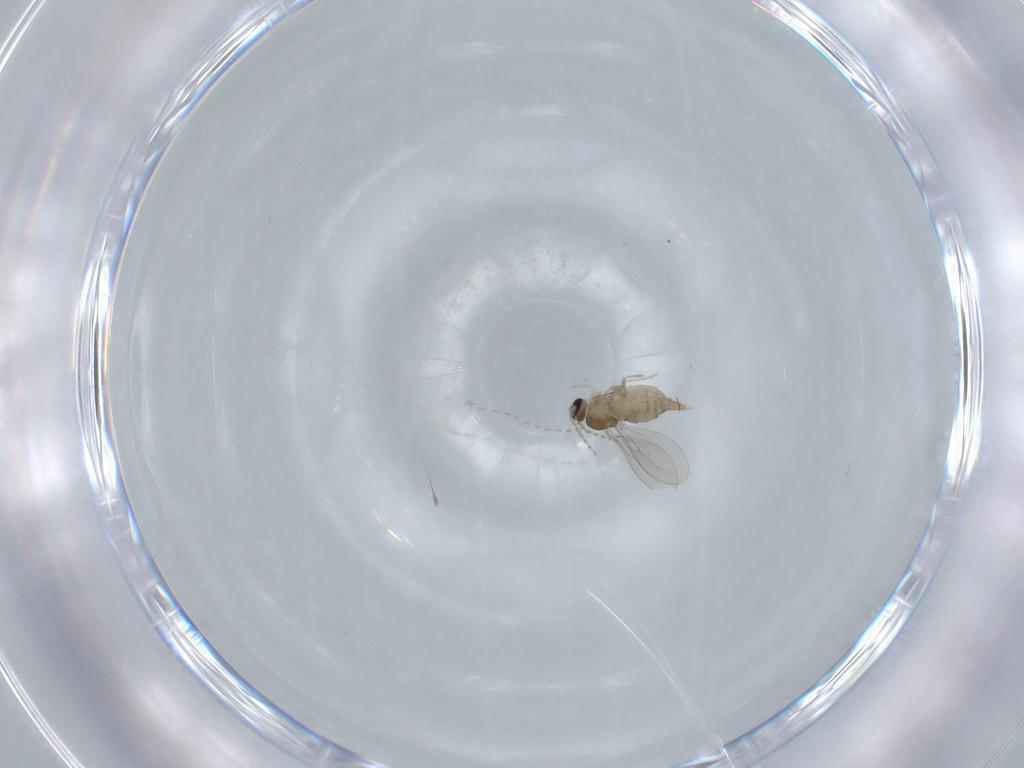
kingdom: Animalia
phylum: Arthropoda
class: Insecta
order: Diptera
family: Cecidomyiidae
